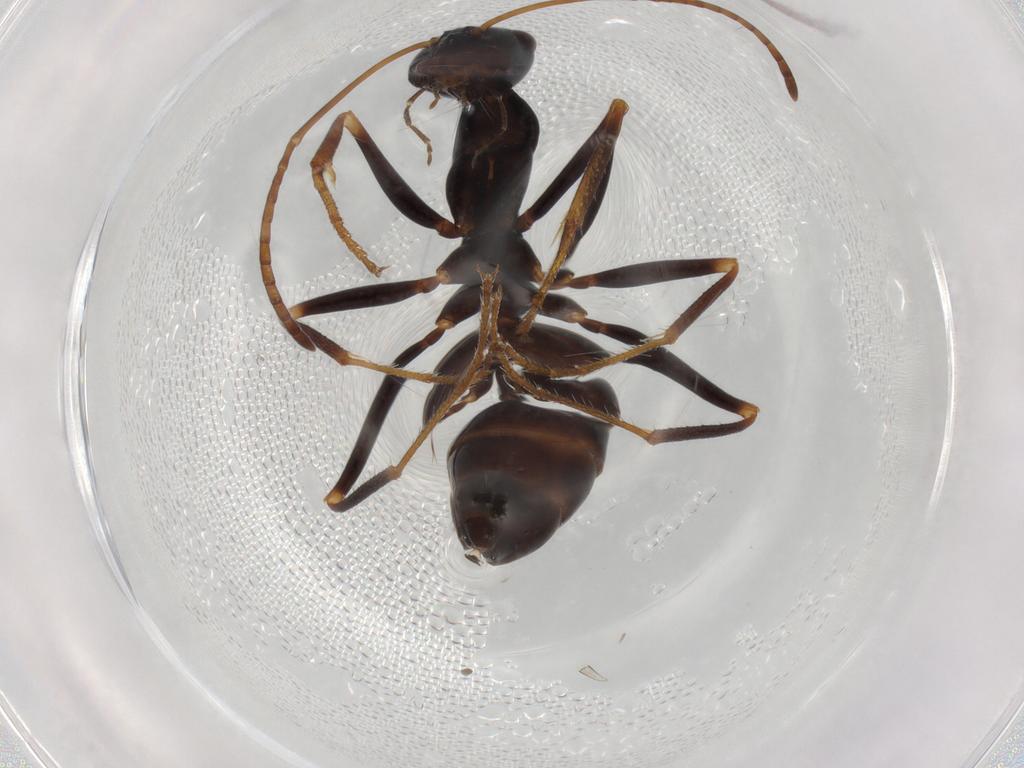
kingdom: Animalia
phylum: Arthropoda
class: Insecta
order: Hymenoptera
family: Formicidae
